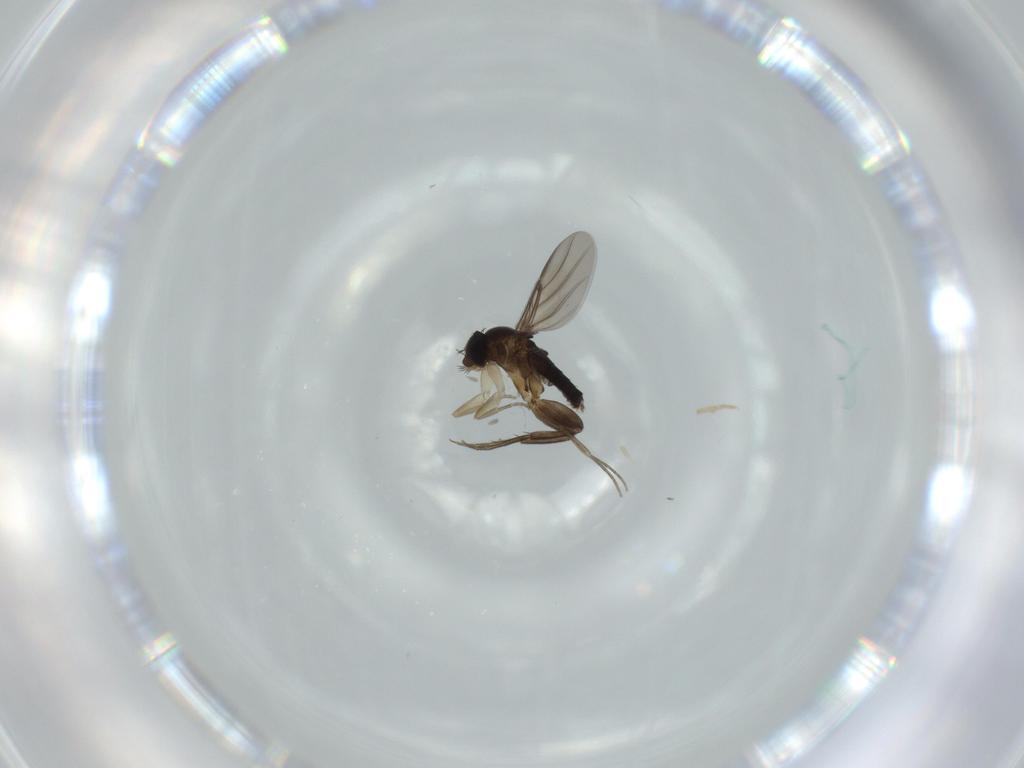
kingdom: Animalia
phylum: Arthropoda
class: Insecta
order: Diptera
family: Phoridae
